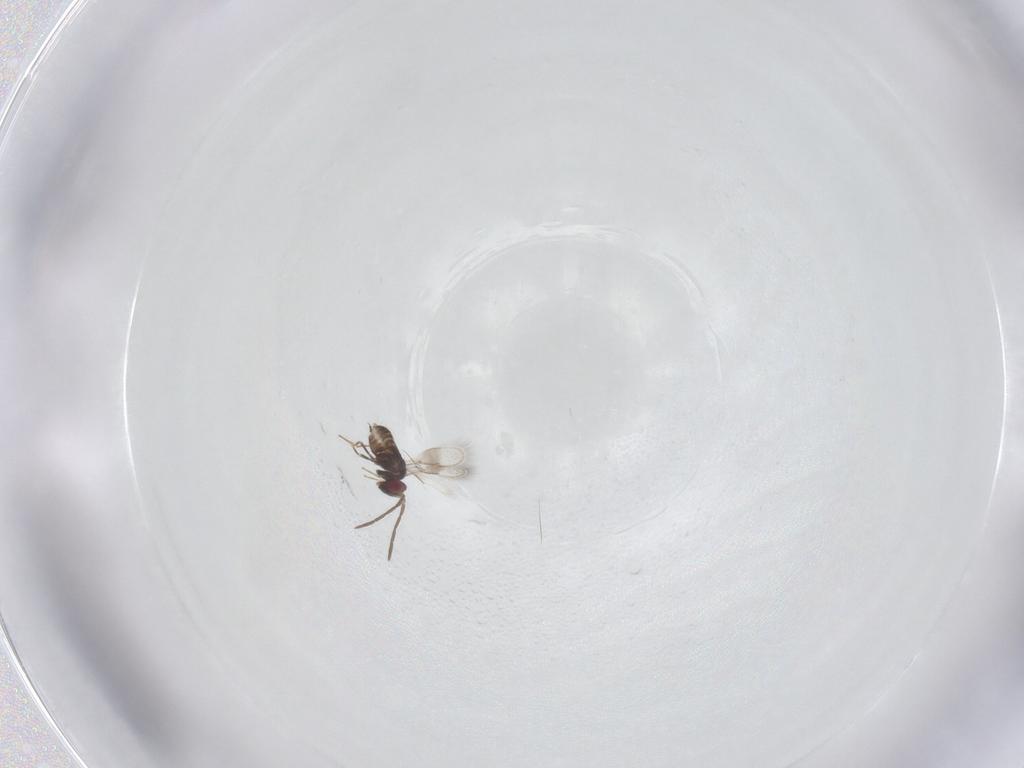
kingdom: Animalia
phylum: Arthropoda
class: Insecta
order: Hymenoptera
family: Azotidae
